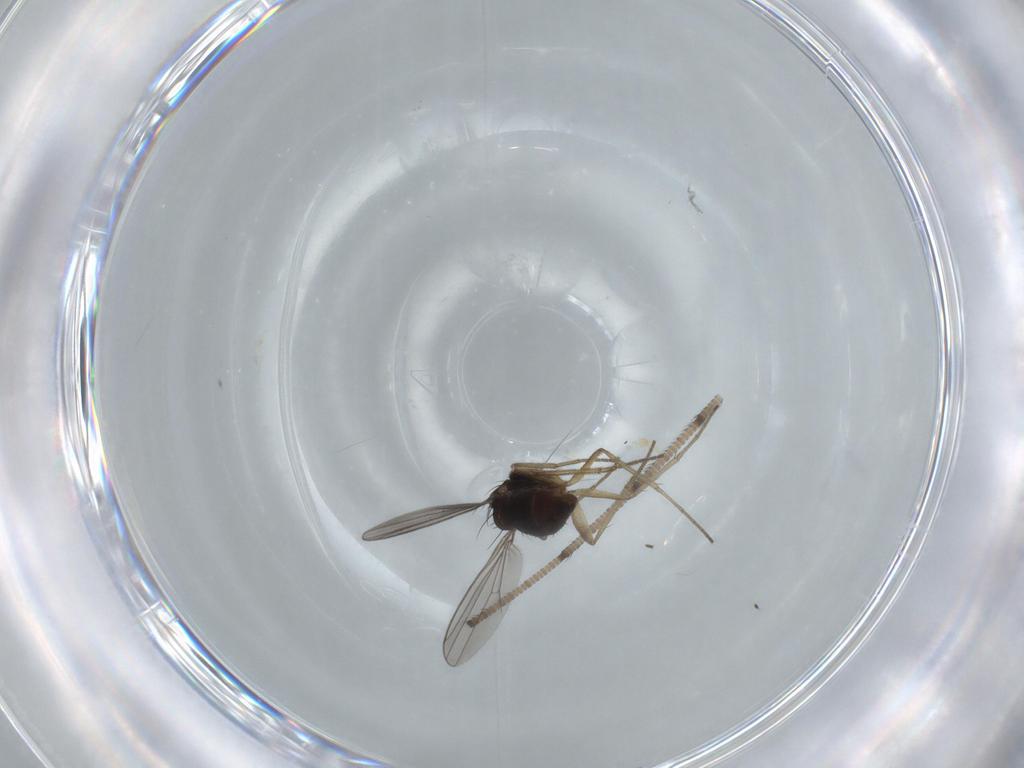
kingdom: Animalia
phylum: Arthropoda
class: Insecta
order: Diptera
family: Dolichopodidae
